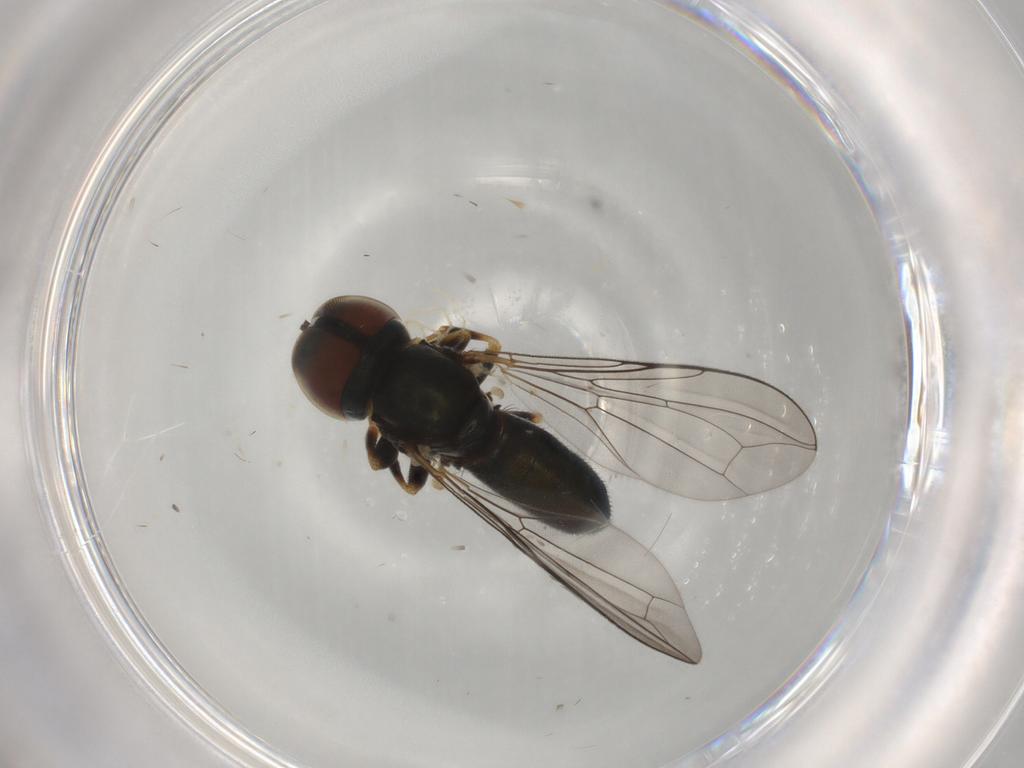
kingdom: Animalia
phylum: Arthropoda
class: Insecta
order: Diptera
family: Pipunculidae
